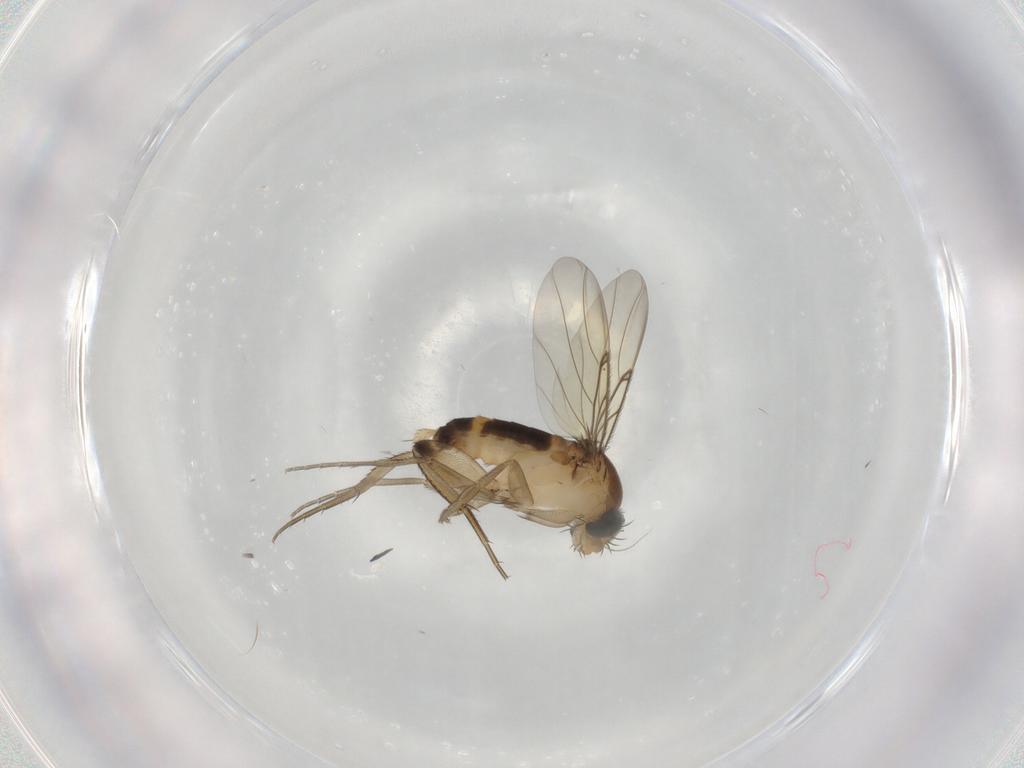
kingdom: Animalia
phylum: Arthropoda
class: Insecta
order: Diptera
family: Phoridae
